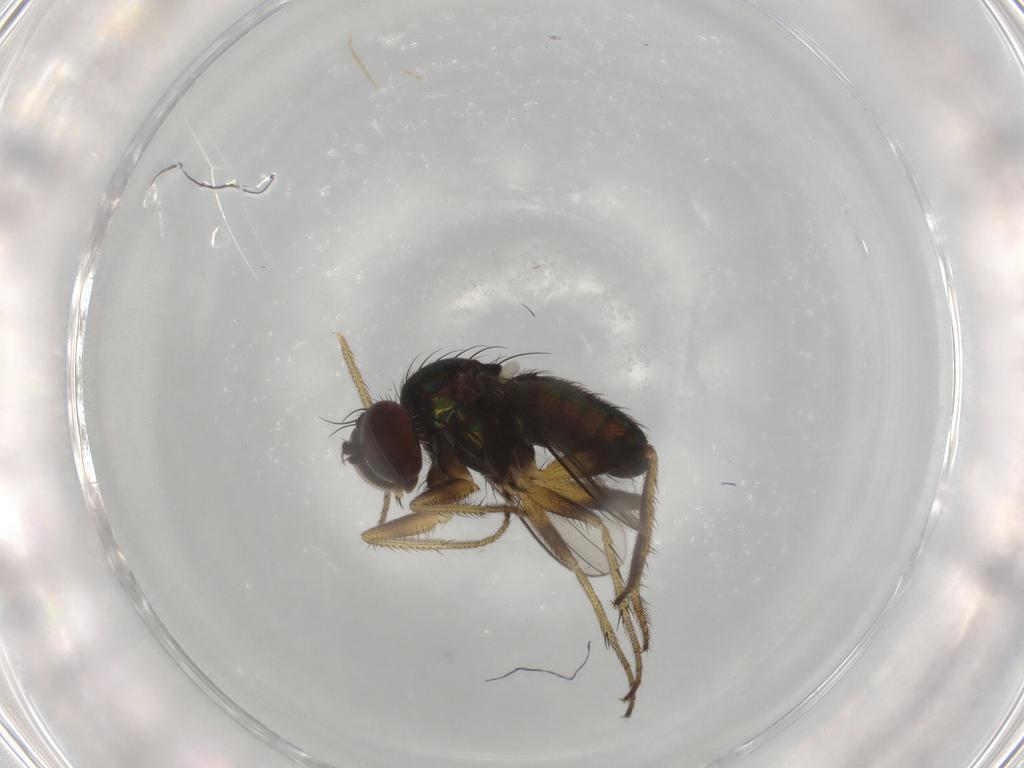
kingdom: Animalia
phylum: Arthropoda
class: Insecta
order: Diptera
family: Dolichopodidae
